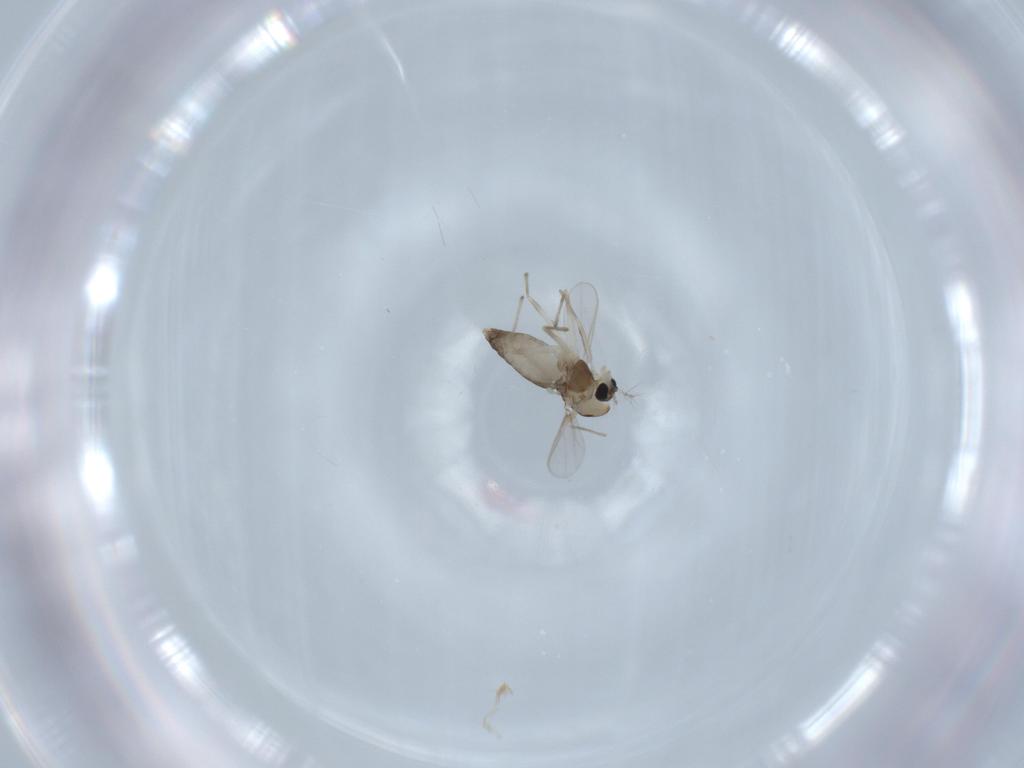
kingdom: Animalia
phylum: Arthropoda
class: Insecta
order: Diptera
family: Chironomidae
